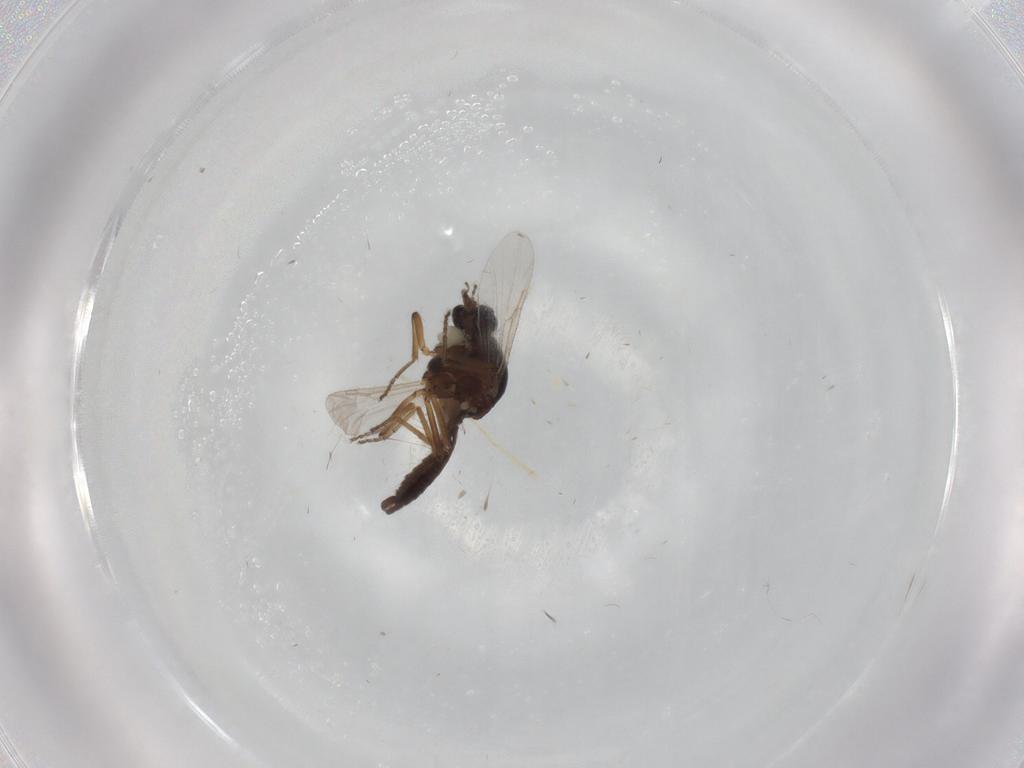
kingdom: Animalia
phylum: Arthropoda
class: Insecta
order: Diptera
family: Ceratopogonidae
